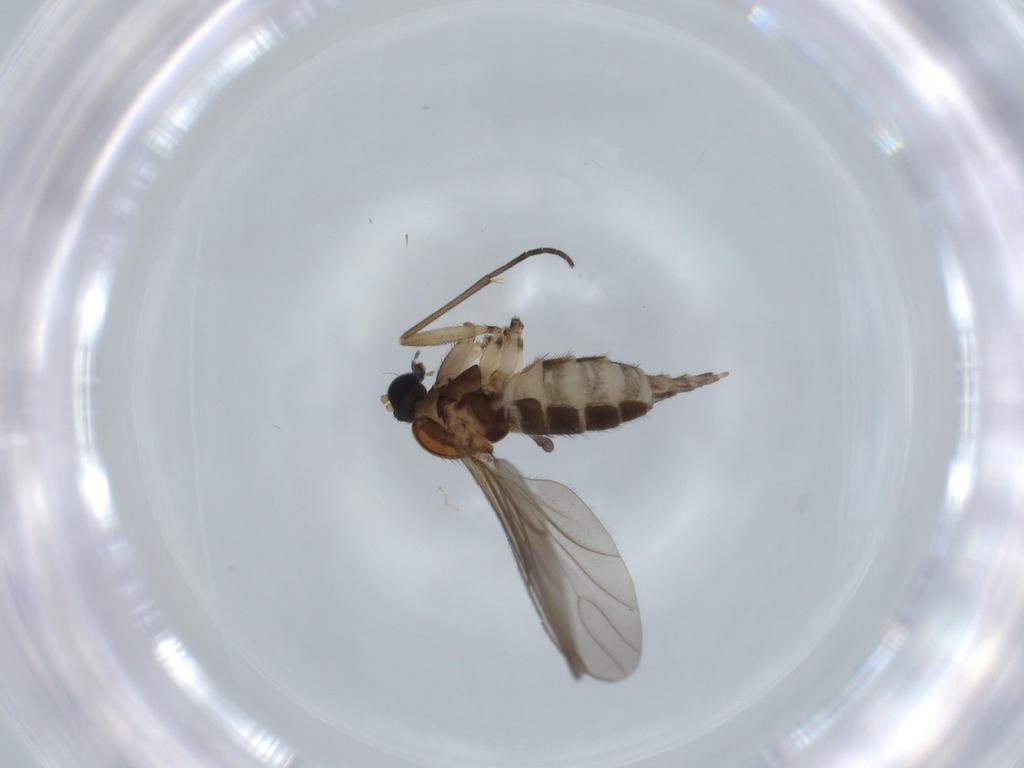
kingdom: Animalia
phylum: Arthropoda
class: Insecta
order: Diptera
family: Sciaridae
